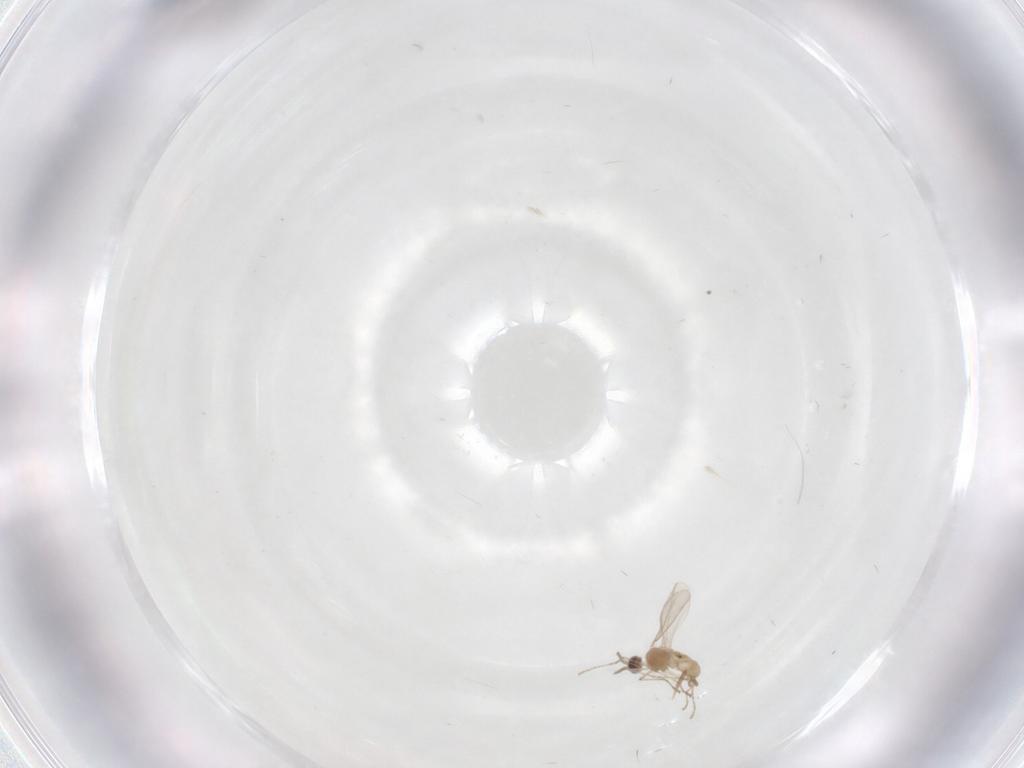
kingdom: Animalia
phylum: Arthropoda
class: Insecta
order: Diptera
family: Cecidomyiidae
